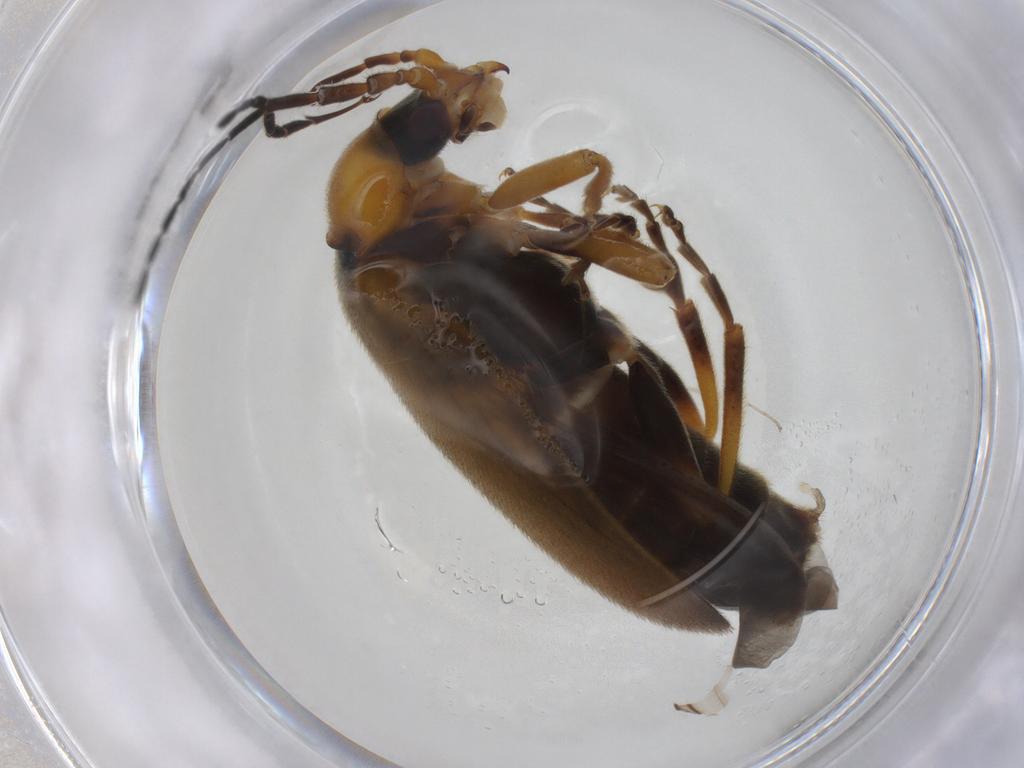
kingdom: Animalia
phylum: Arthropoda
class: Insecta
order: Coleoptera
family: Cantharidae
